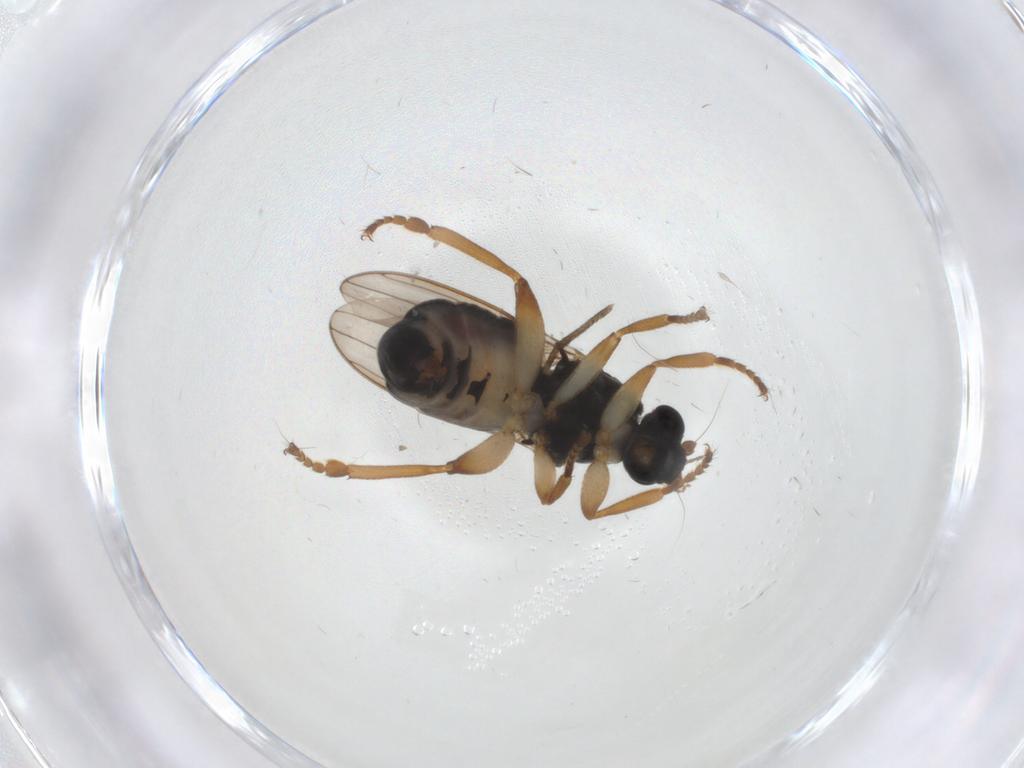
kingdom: Animalia
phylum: Arthropoda
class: Insecta
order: Diptera
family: Sphaeroceridae
